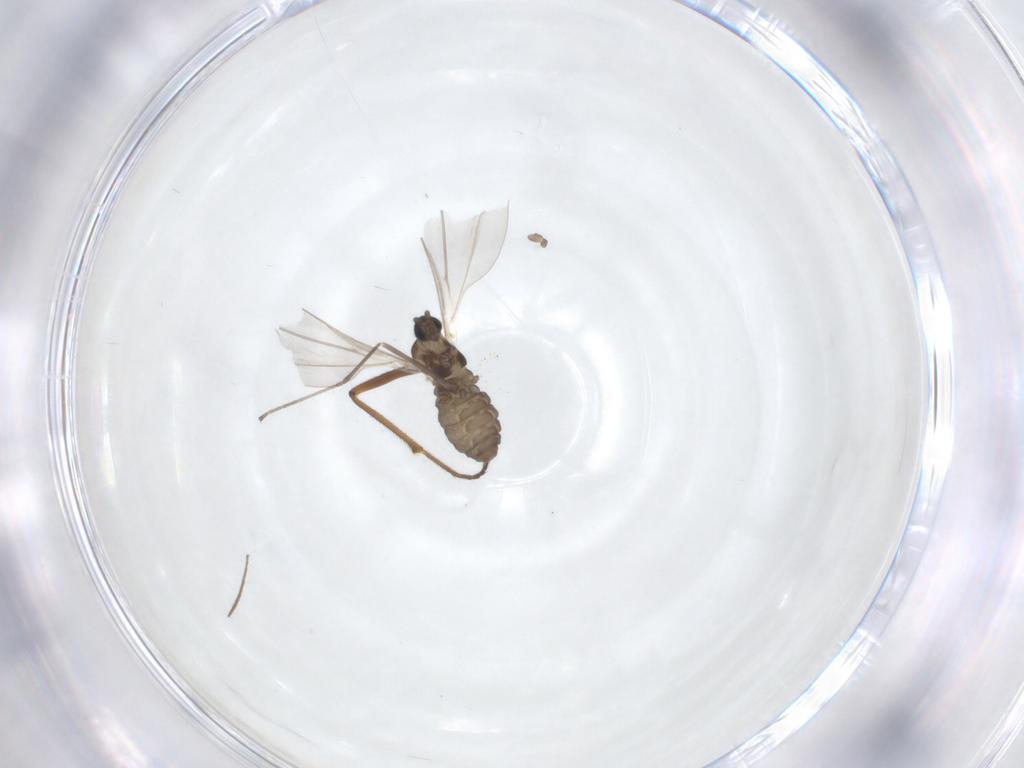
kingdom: Animalia
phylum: Arthropoda
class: Insecta
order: Diptera
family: Cecidomyiidae
